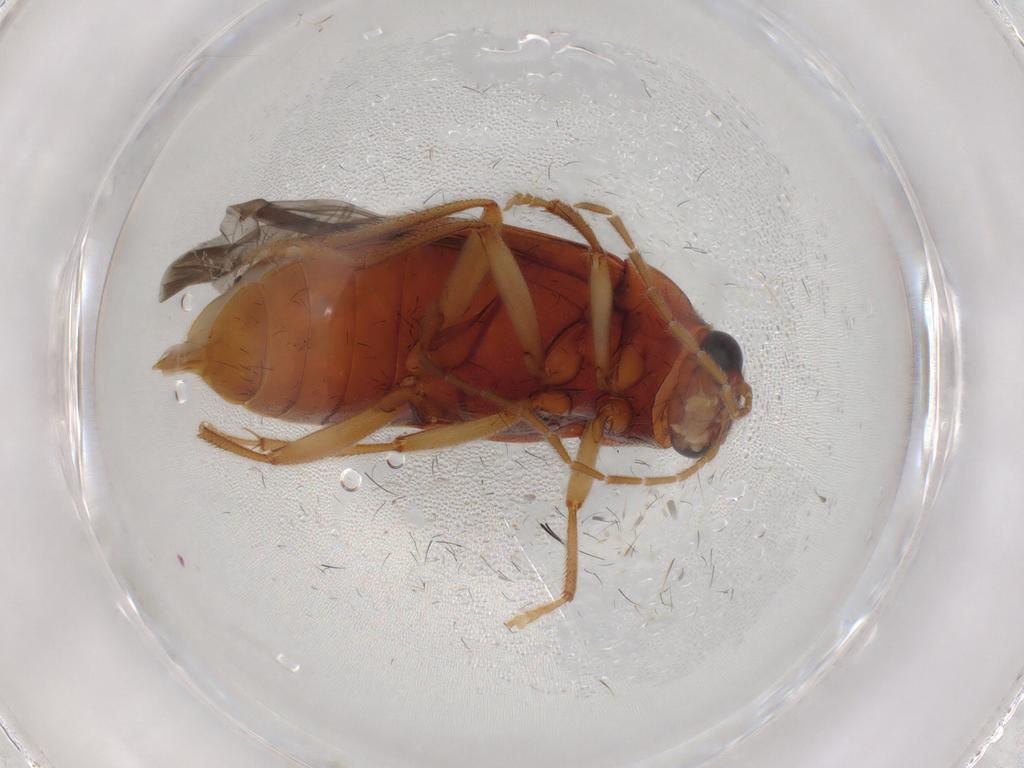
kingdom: Animalia
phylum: Arthropoda
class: Insecta
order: Coleoptera
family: Ptilodactylidae
